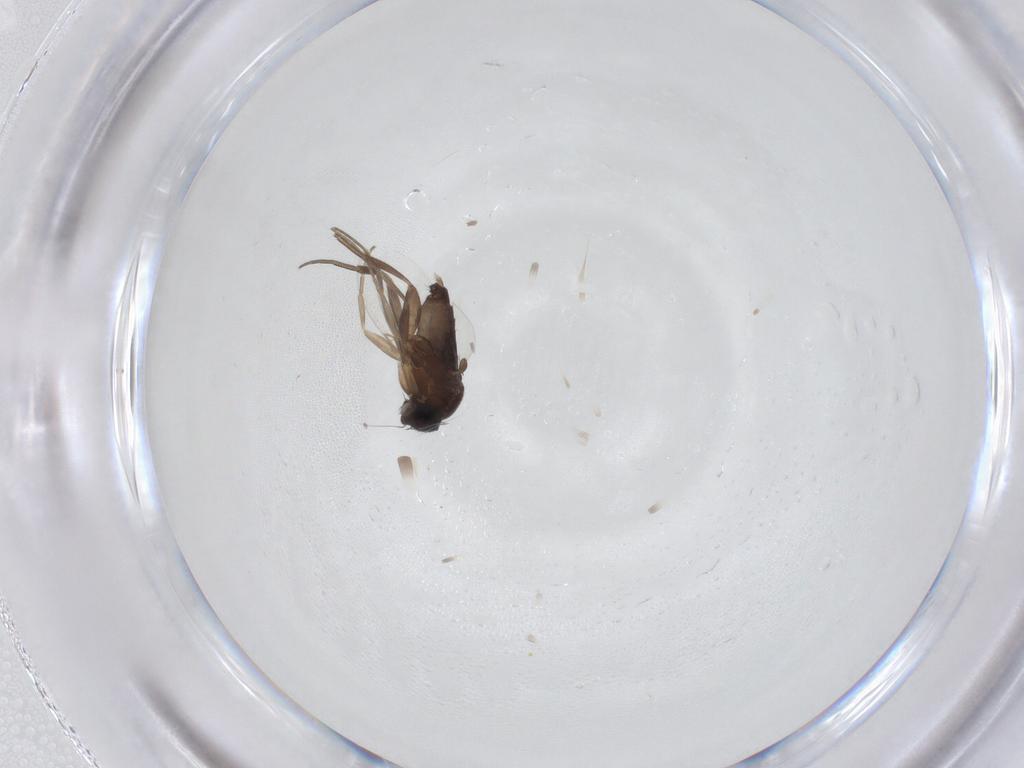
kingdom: Animalia
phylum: Arthropoda
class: Insecta
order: Diptera
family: Phoridae
